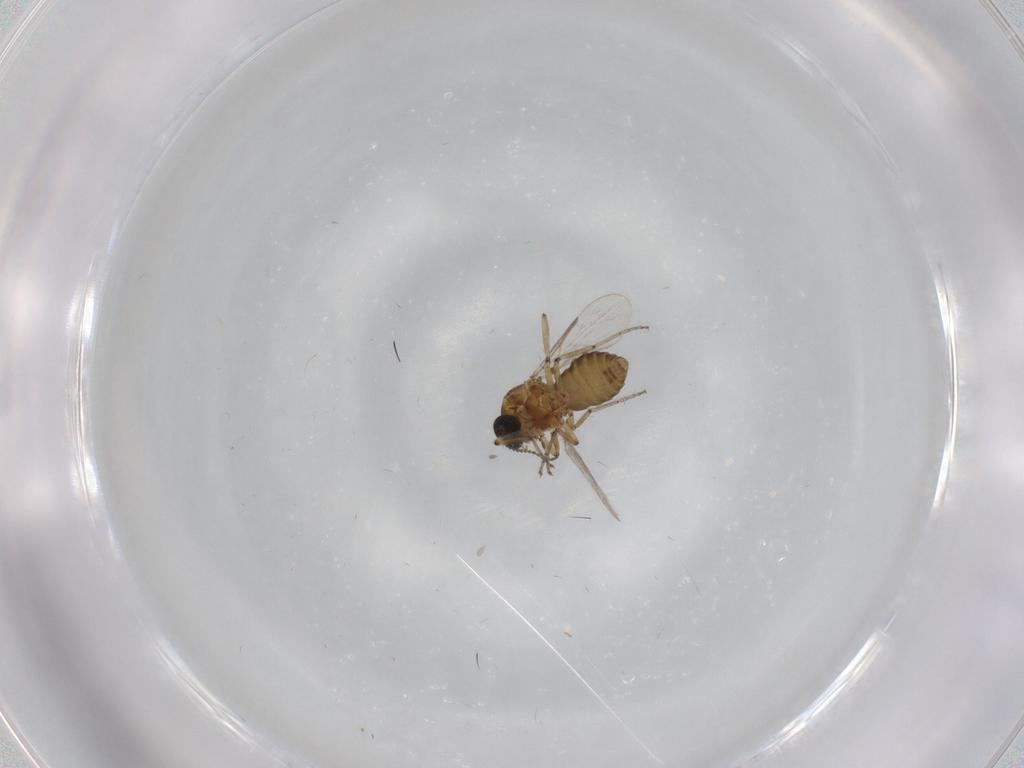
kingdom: Animalia
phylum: Arthropoda
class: Insecta
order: Diptera
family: Ceratopogonidae
